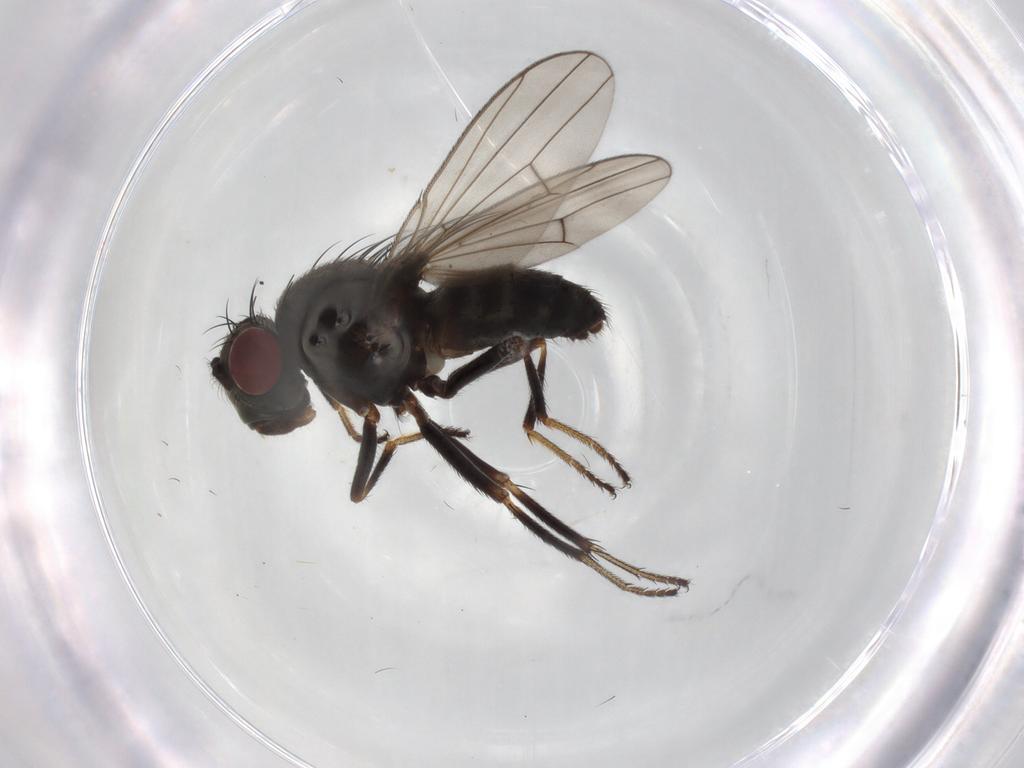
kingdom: Animalia
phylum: Arthropoda
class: Insecta
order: Diptera
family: Ephydridae
